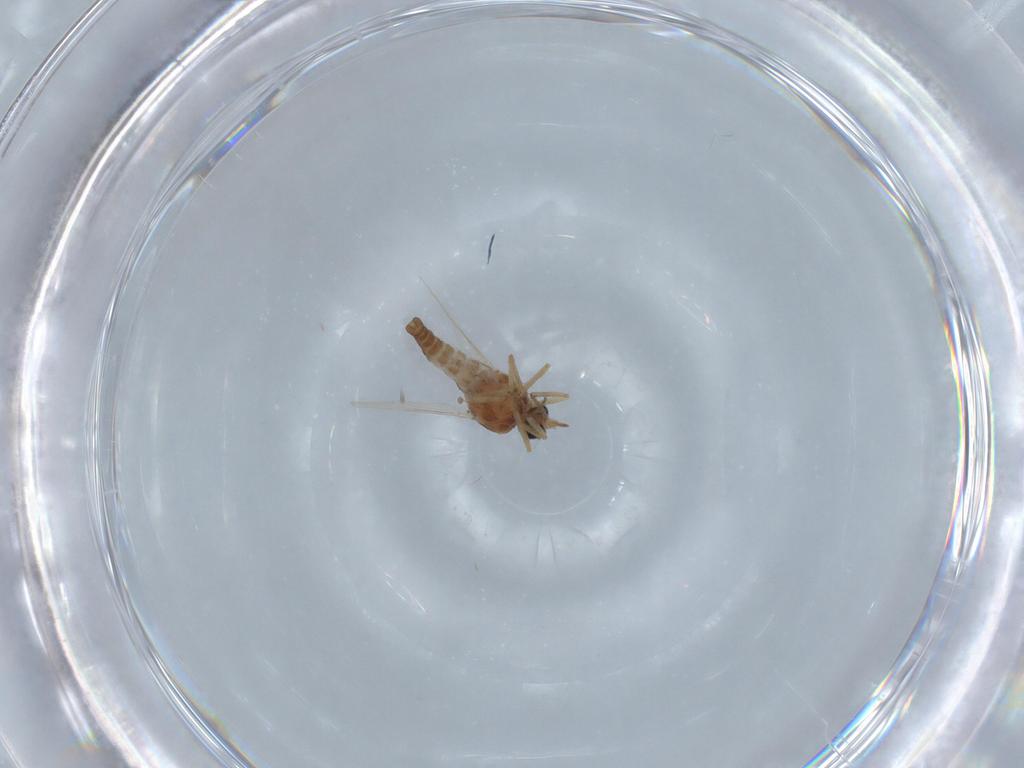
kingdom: Animalia
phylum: Arthropoda
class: Insecta
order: Diptera
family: Ceratopogonidae
